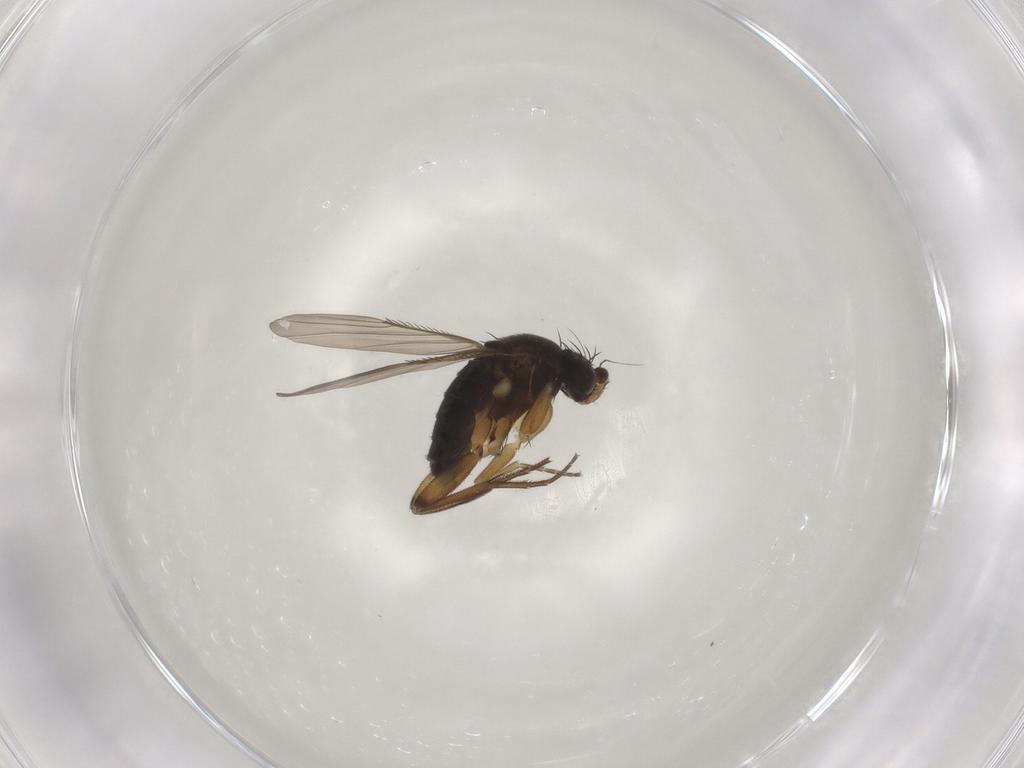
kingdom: Animalia
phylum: Arthropoda
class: Insecta
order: Diptera
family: Phoridae
